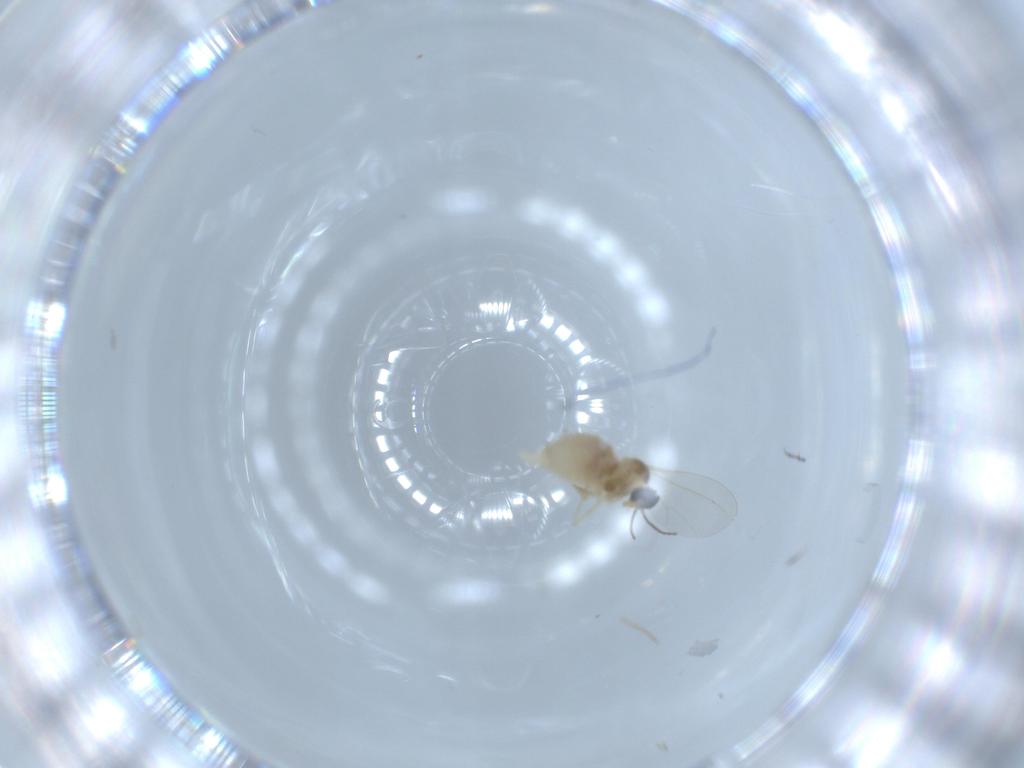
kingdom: Animalia
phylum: Arthropoda
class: Insecta
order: Diptera
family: Cecidomyiidae
